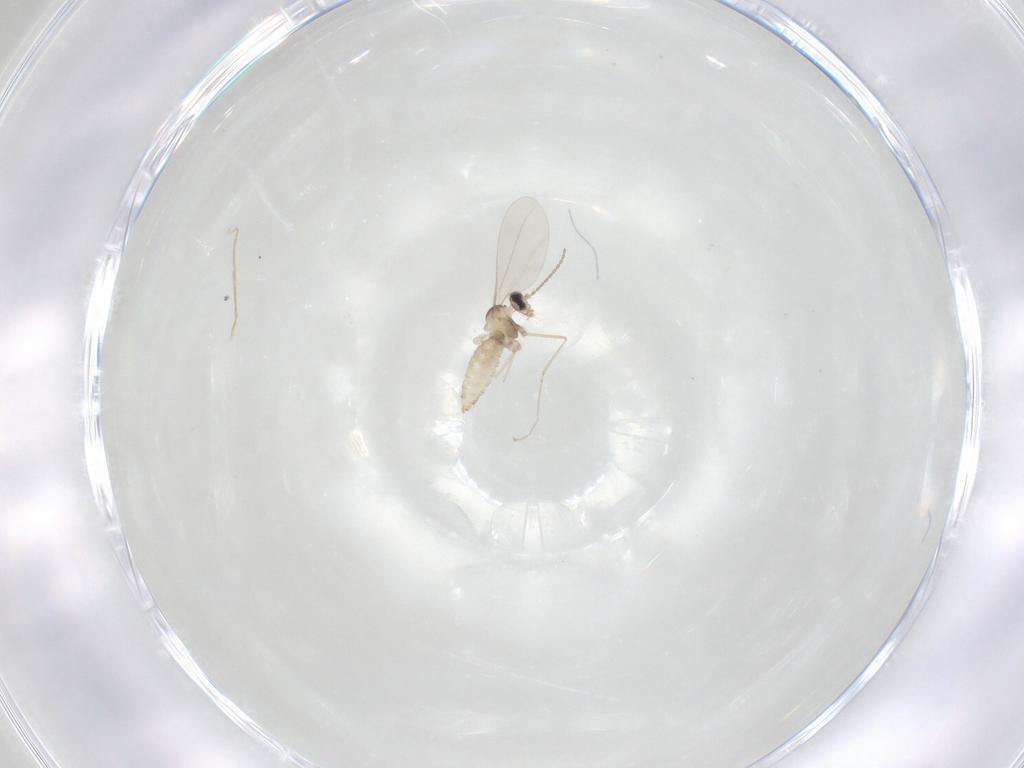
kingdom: Animalia
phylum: Arthropoda
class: Insecta
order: Diptera
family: Cecidomyiidae
